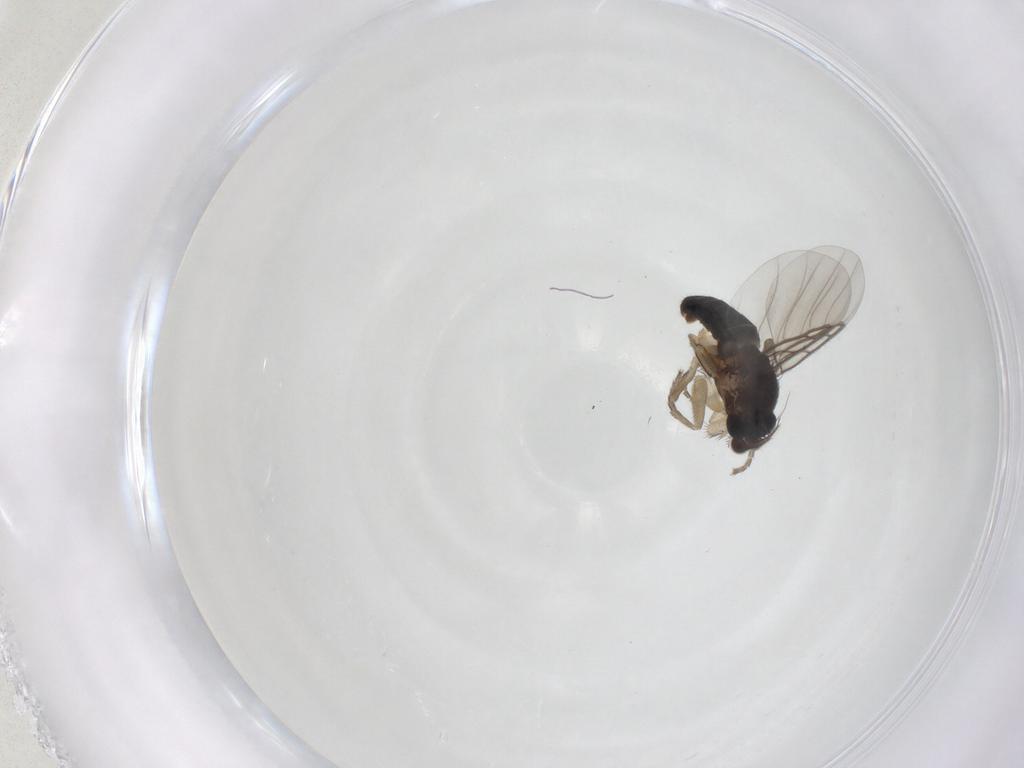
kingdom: Animalia
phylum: Arthropoda
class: Insecta
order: Diptera
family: Phoridae
